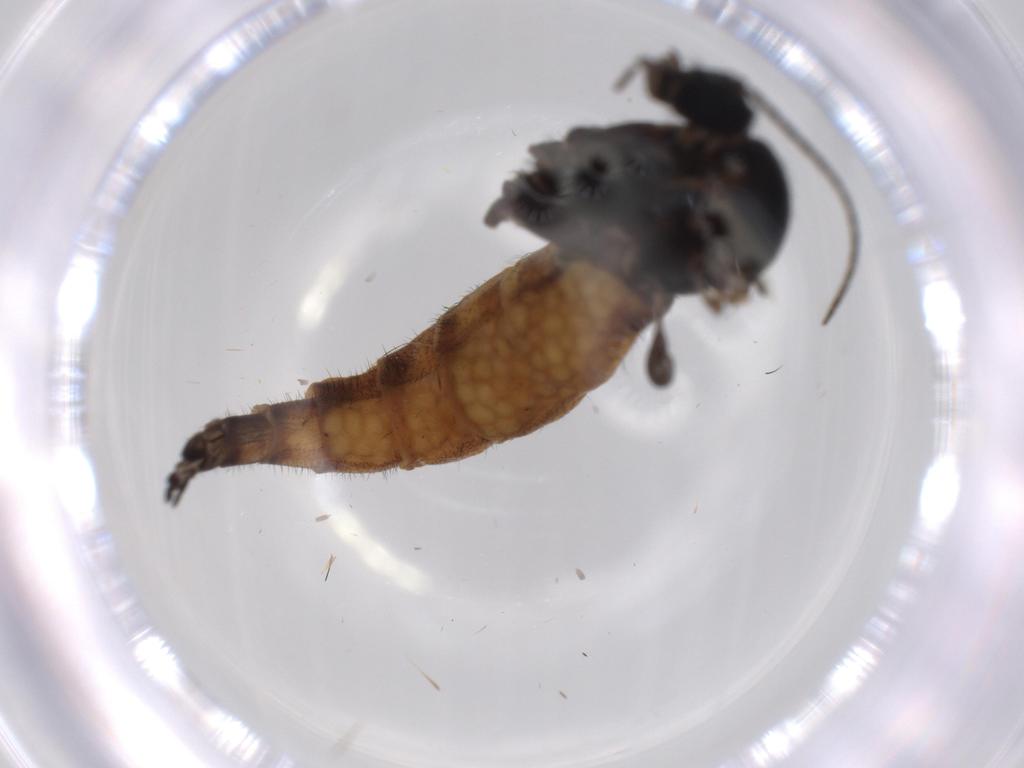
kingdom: Animalia
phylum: Arthropoda
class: Insecta
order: Diptera
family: Cecidomyiidae
